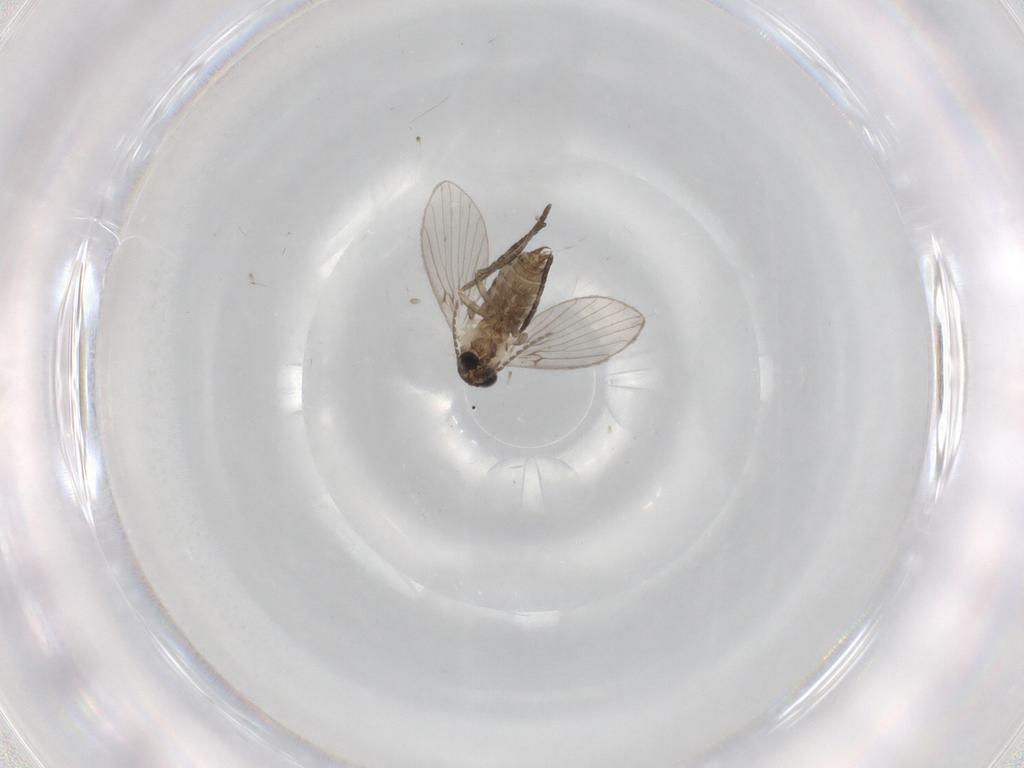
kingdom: Animalia
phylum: Arthropoda
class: Insecta
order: Diptera
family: Psychodidae
